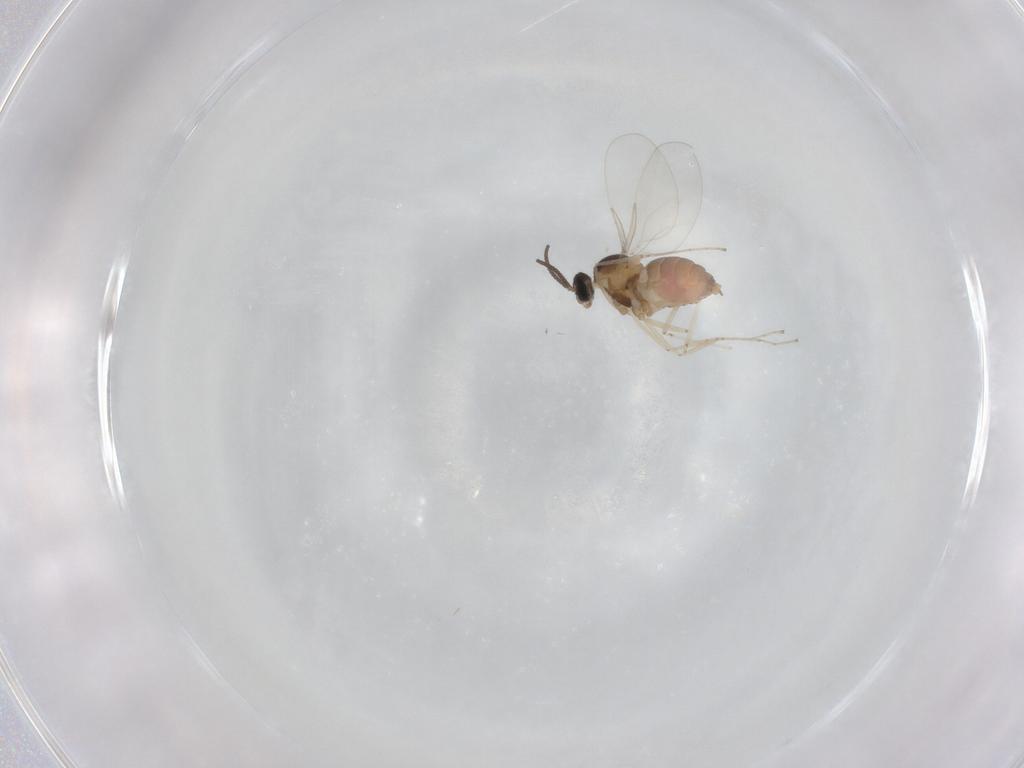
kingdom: Animalia
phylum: Arthropoda
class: Insecta
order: Diptera
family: Cecidomyiidae
